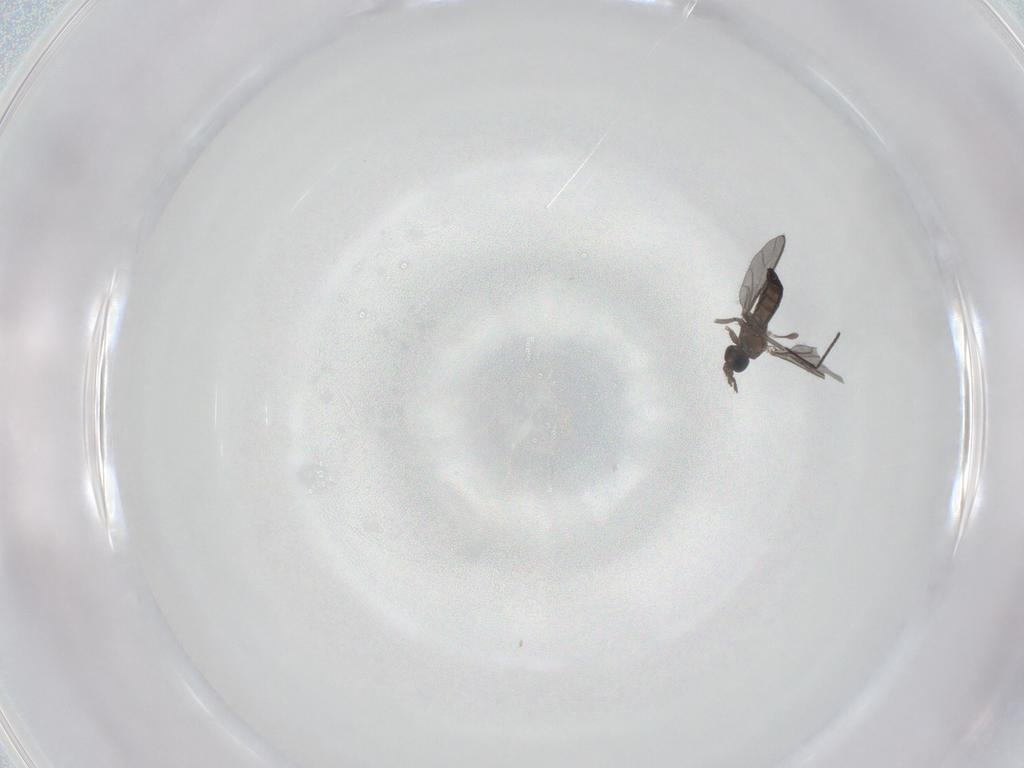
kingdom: Animalia
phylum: Arthropoda
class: Insecta
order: Diptera
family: Sciaridae
